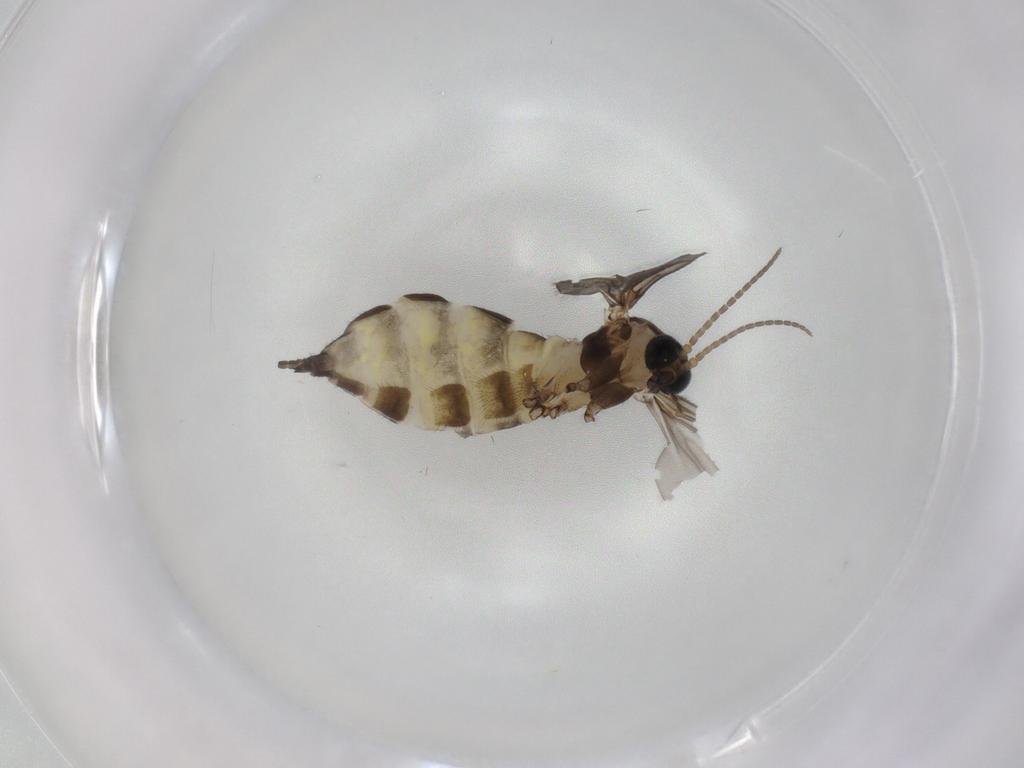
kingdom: Animalia
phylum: Arthropoda
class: Insecta
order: Diptera
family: Sciaridae
